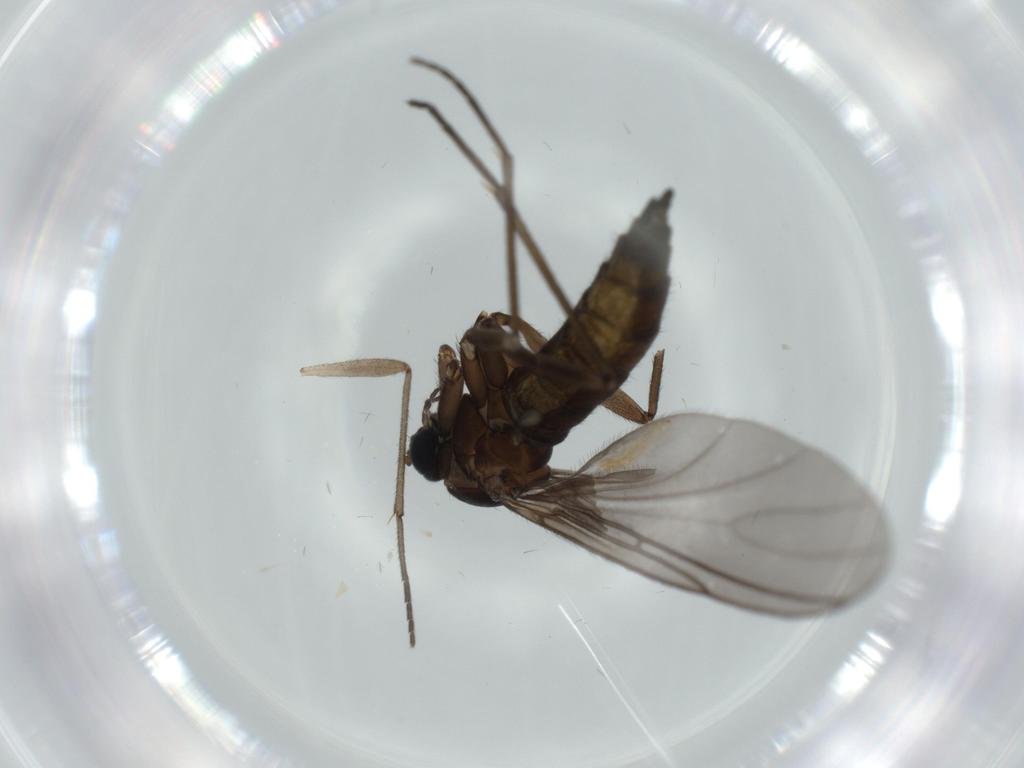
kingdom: Animalia
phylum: Arthropoda
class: Insecta
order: Diptera
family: Sciaridae
